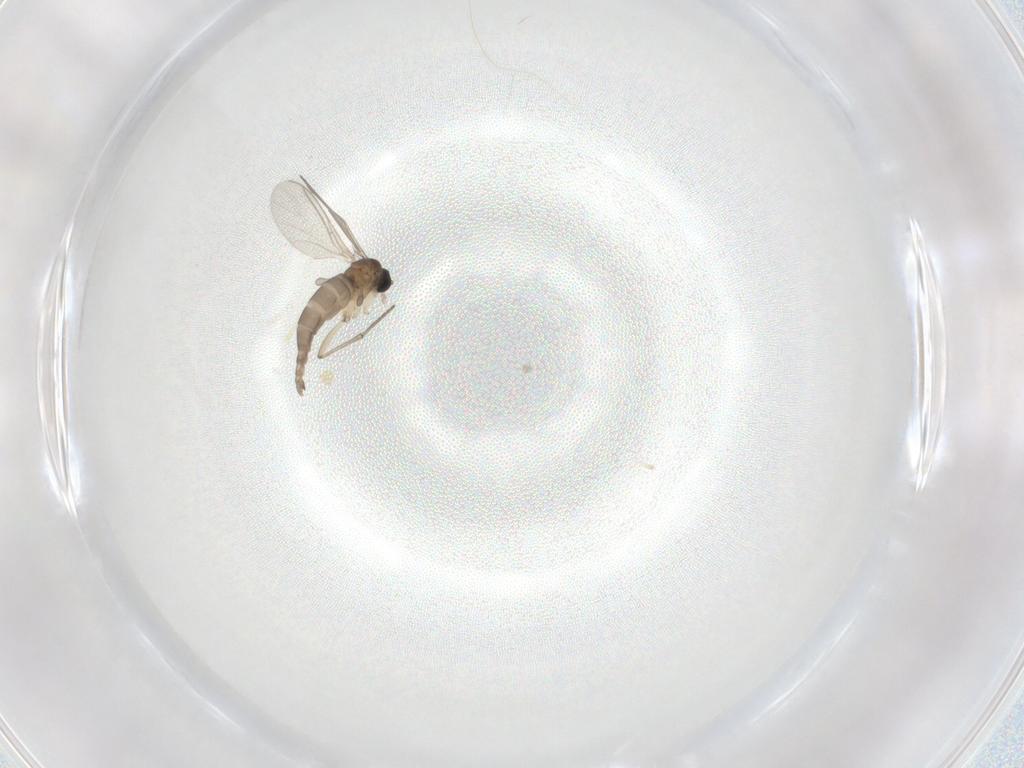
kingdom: Animalia
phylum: Arthropoda
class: Insecta
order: Diptera
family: Sciaridae
